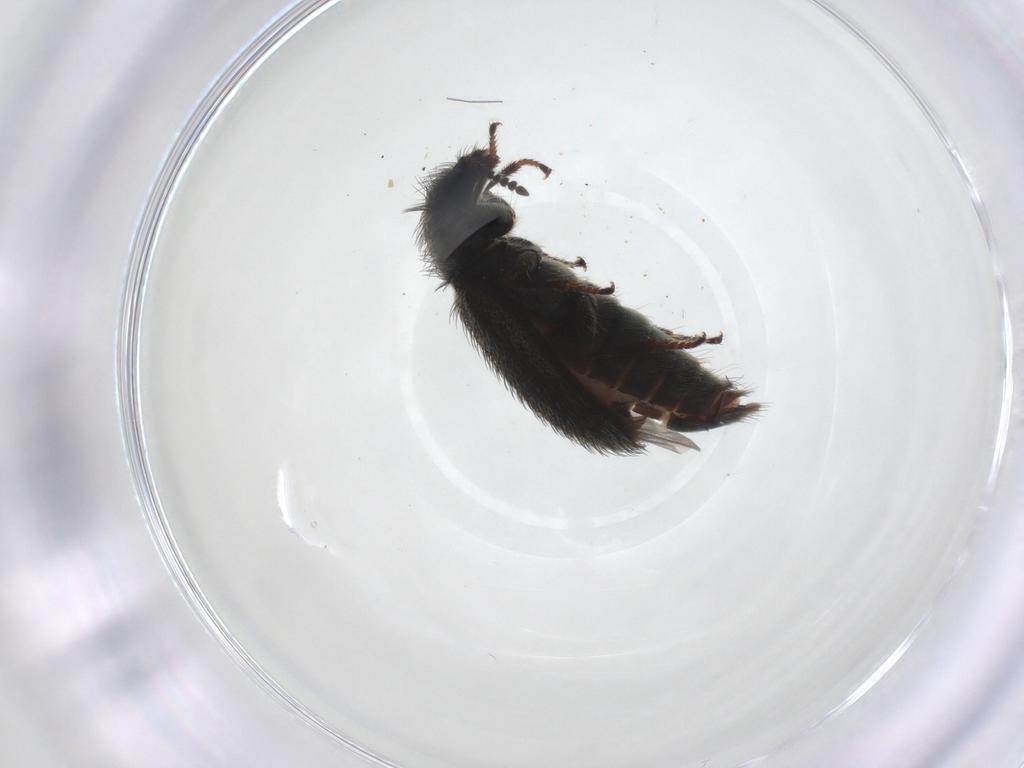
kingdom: Animalia
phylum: Arthropoda
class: Insecta
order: Coleoptera
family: Melyridae
